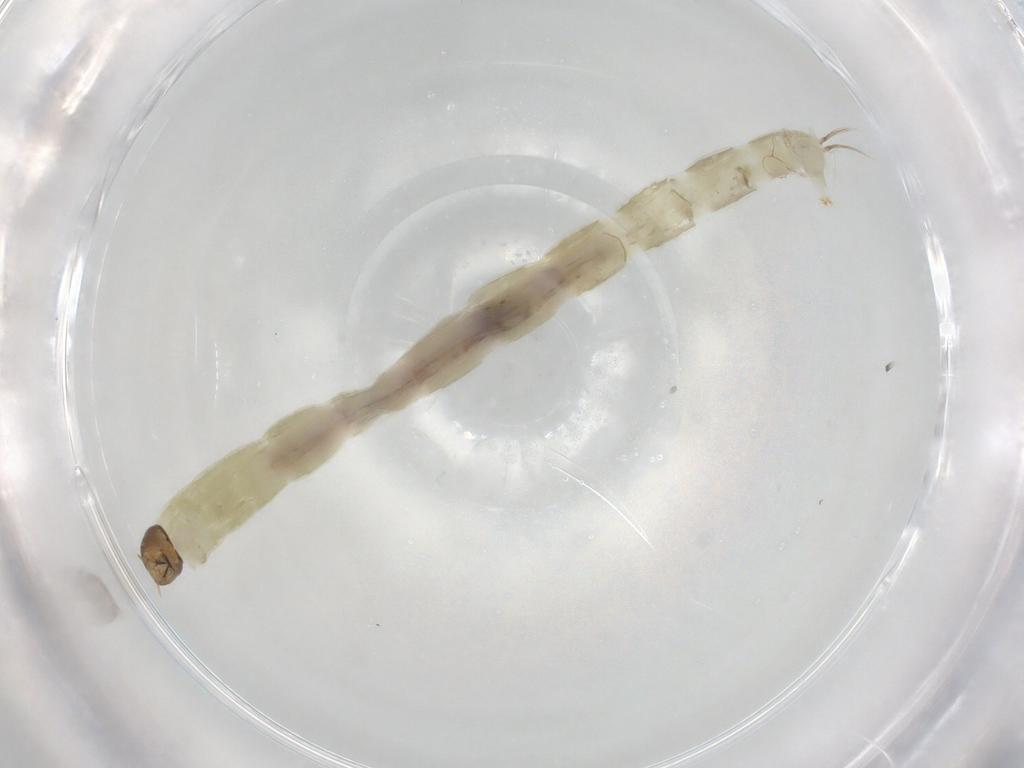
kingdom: Animalia
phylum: Arthropoda
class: Insecta
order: Diptera
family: Chironomidae
